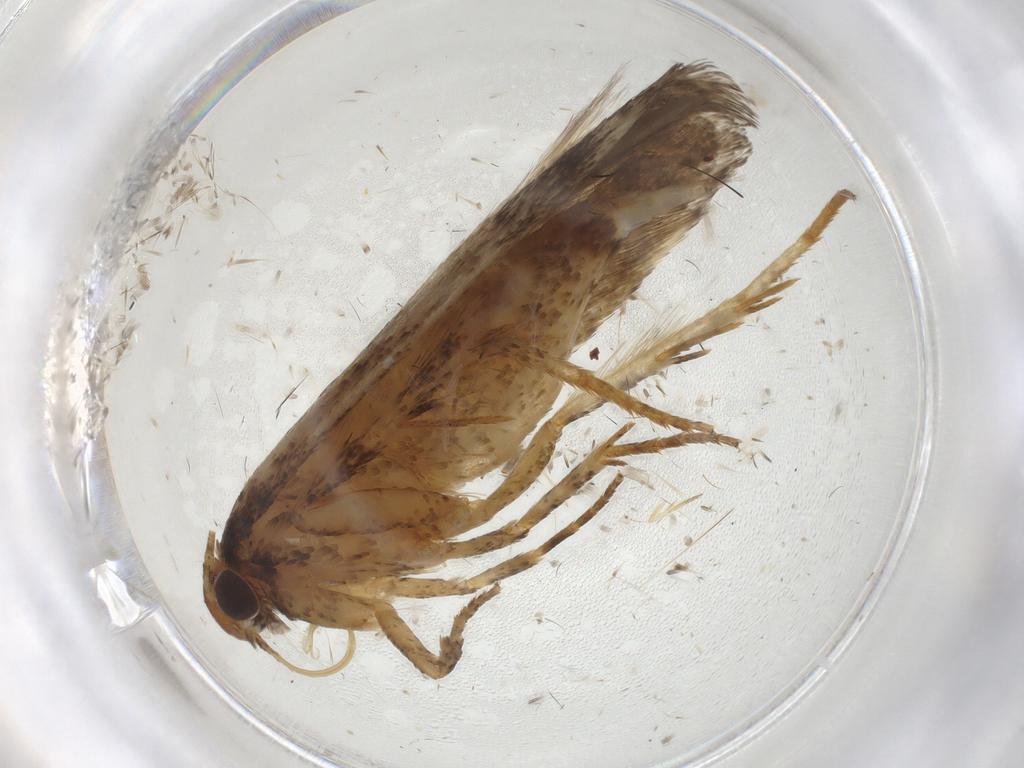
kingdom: Animalia
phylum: Arthropoda
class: Insecta
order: Lepidoptera
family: Gelechiidae
